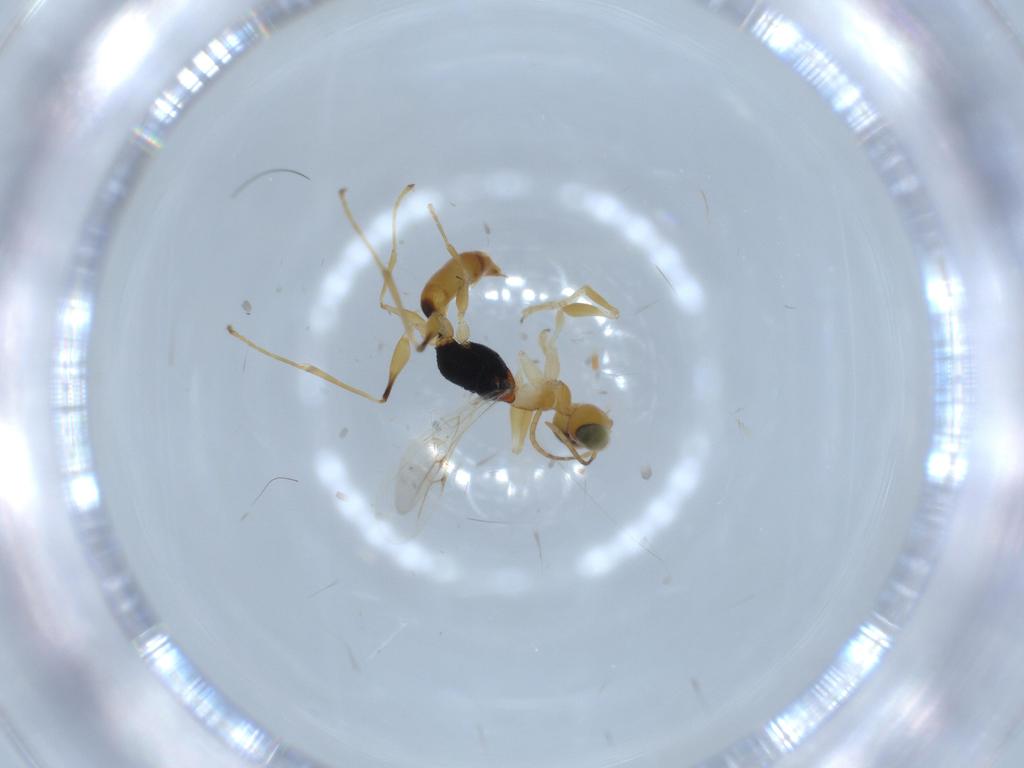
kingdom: Animalia
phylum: Arthropoda
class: Insecta
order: Hymenoptera
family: Dryinidae
